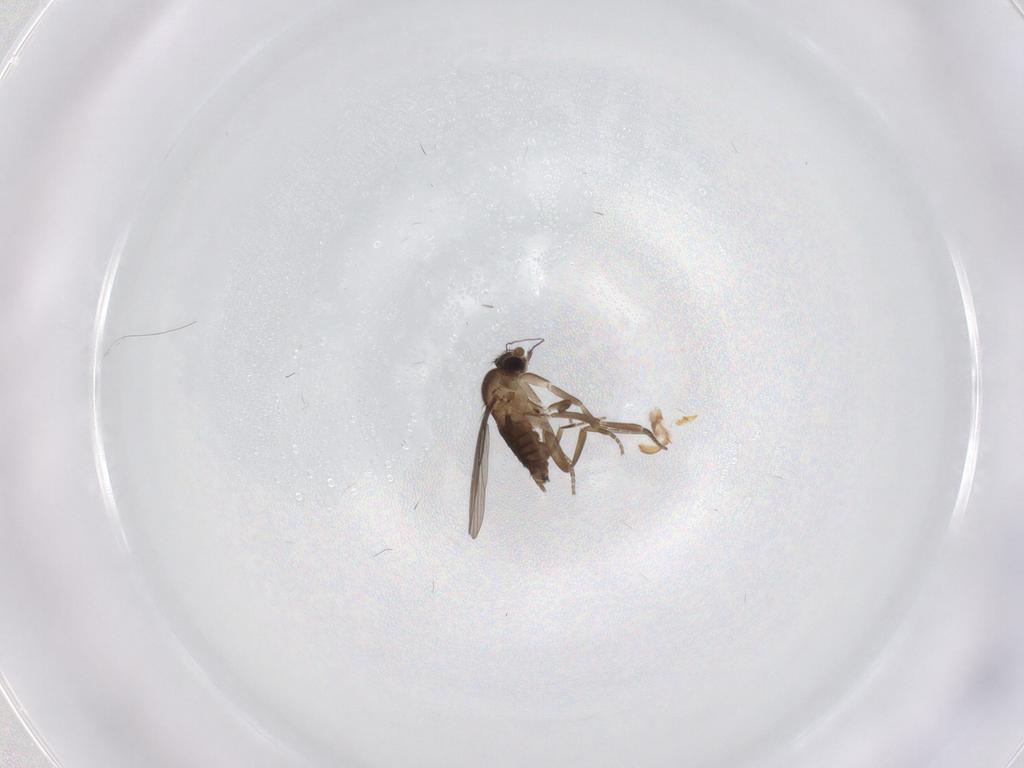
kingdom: Animalia
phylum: Arthropoda
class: Insecta
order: Diptera
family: Phoridae
